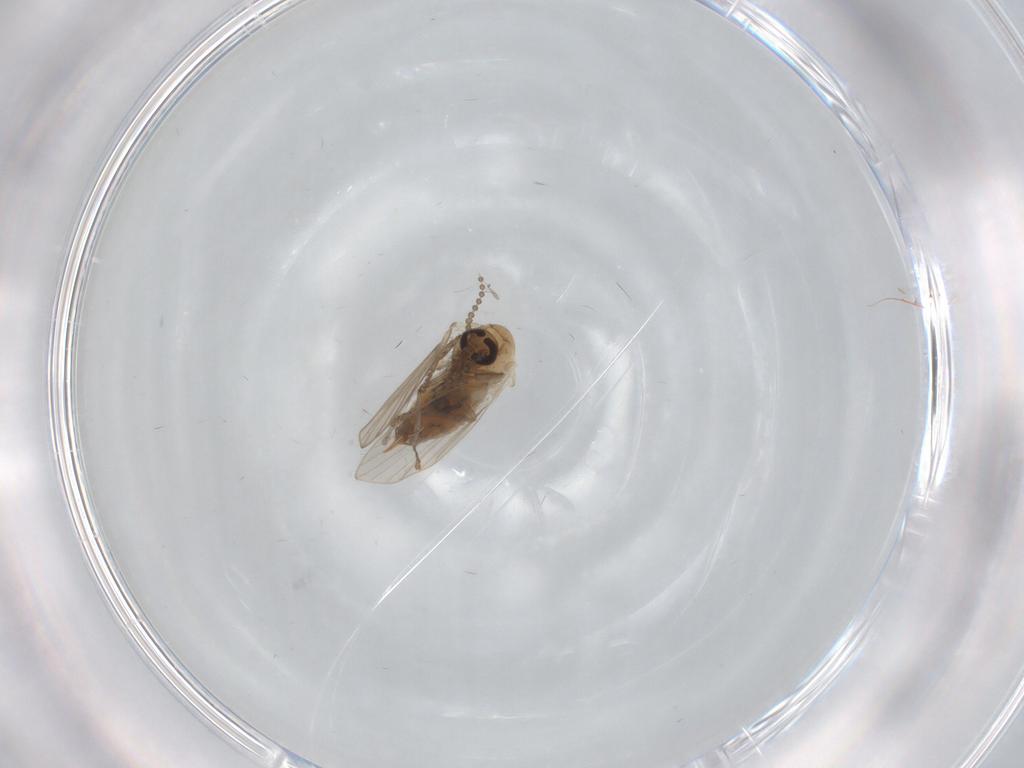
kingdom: Animalia
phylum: Arthropoda
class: Insecta
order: Diptera
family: Psychodidae
